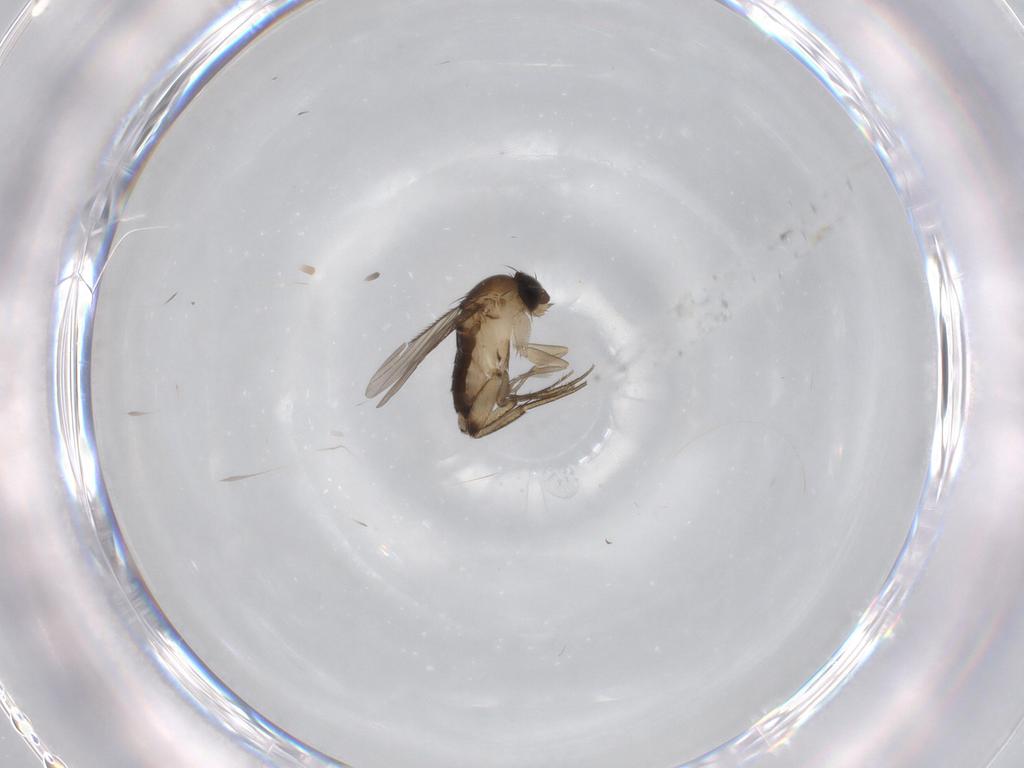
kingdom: Animalia
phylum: Arthropoda
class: Insecta
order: Diptera
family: Phoridae
